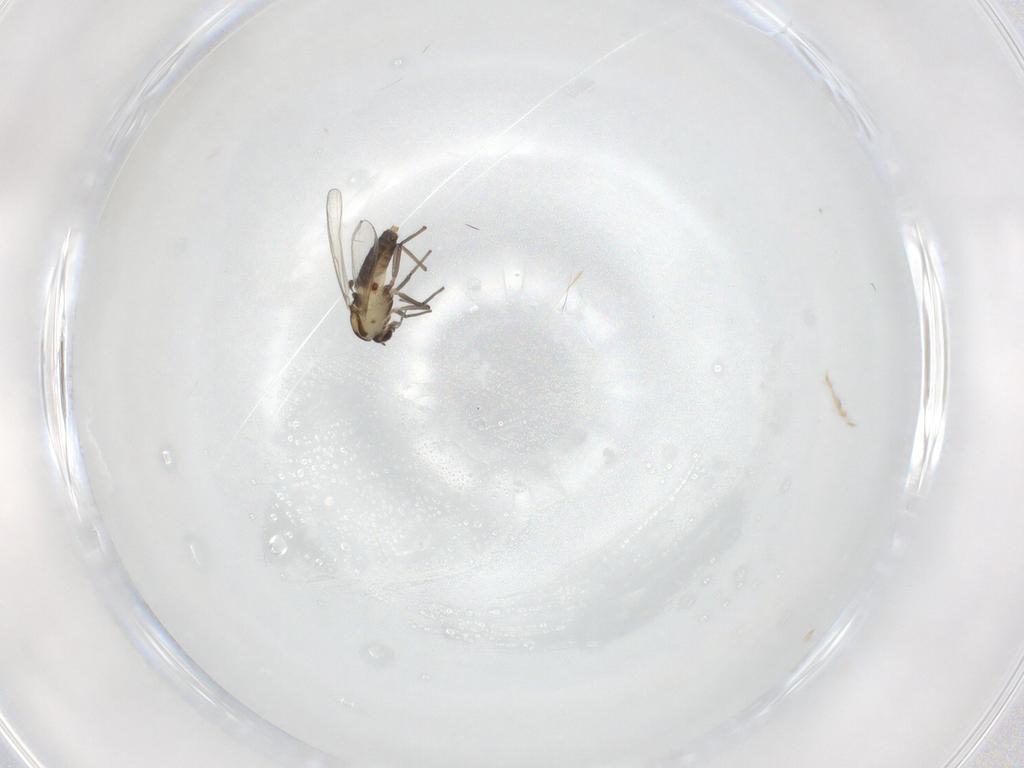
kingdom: Animalia
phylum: Arthropoda
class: Insecta
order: Diptera
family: Chironomidae
